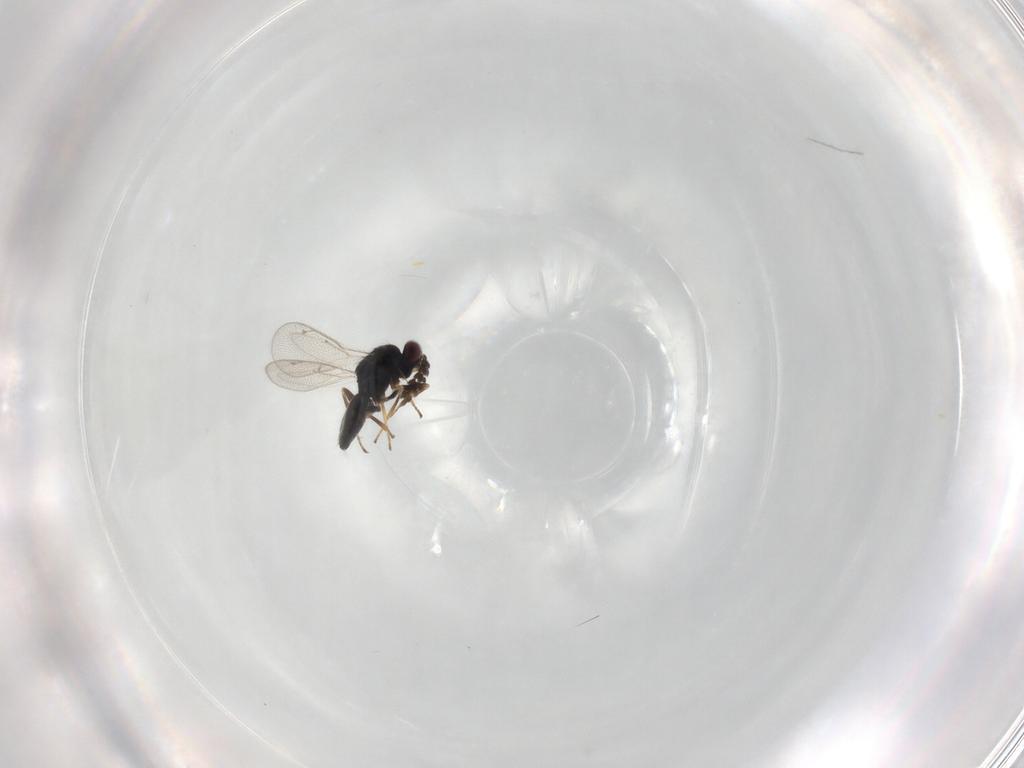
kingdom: Animalia
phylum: Arthropoda
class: Insecta
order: Hymenoptera
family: Eulophidae
